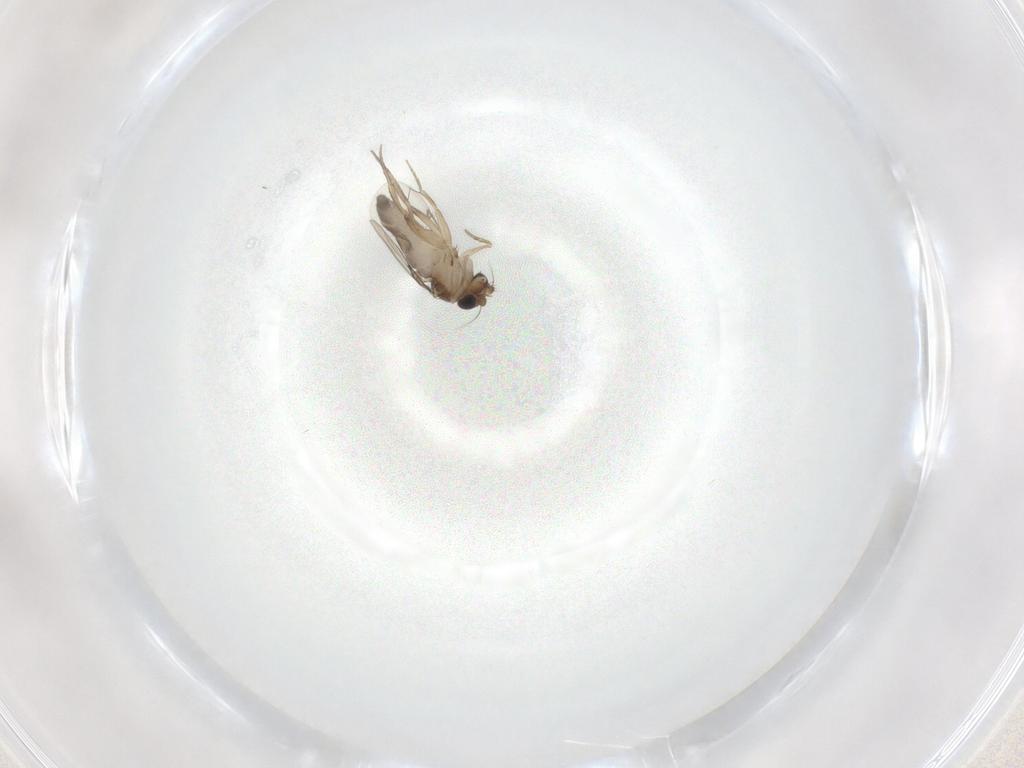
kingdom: Animalia
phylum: Arthropoda
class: Insecta
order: Diptera
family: Phoridae
